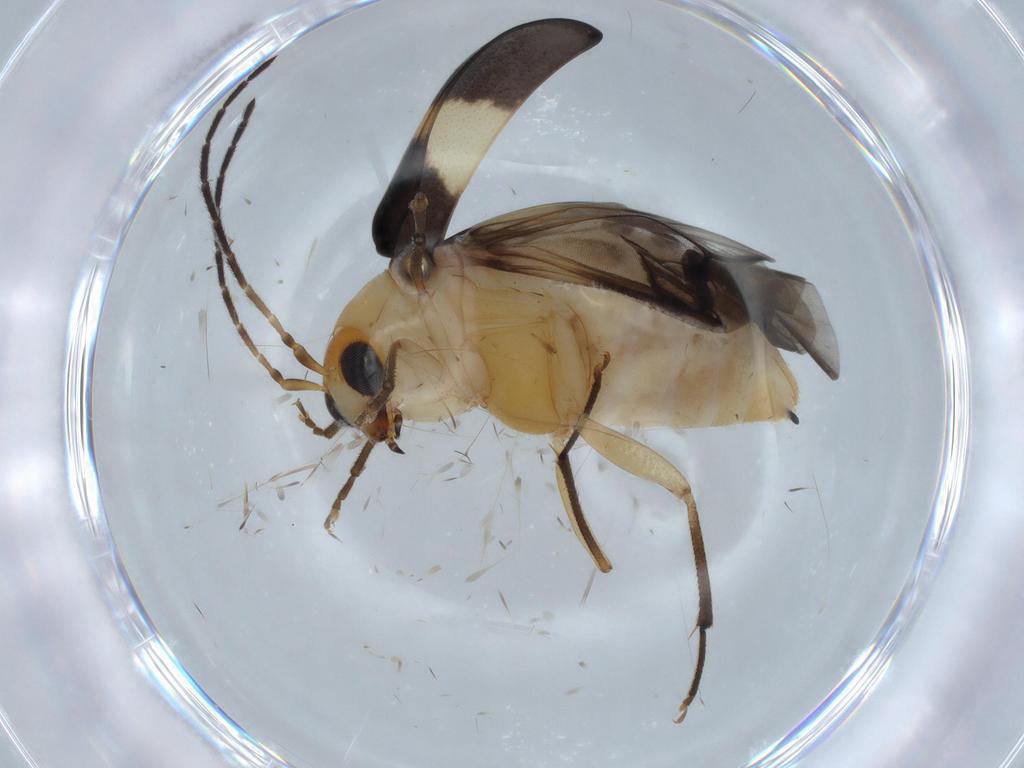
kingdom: Animalia
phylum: Arthropoda
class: Insecta
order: Coleoptera
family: Chrysomelidae
